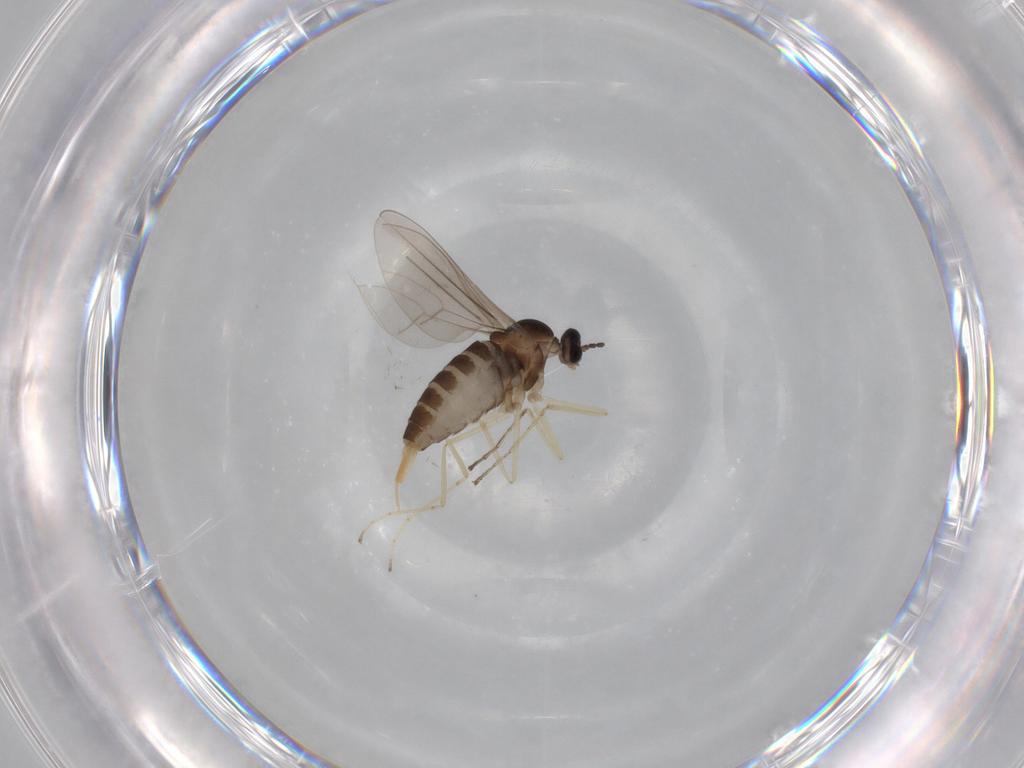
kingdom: Animalia
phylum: Arthropoda
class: Insecta
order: Diptera
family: Cecidomyiidae
